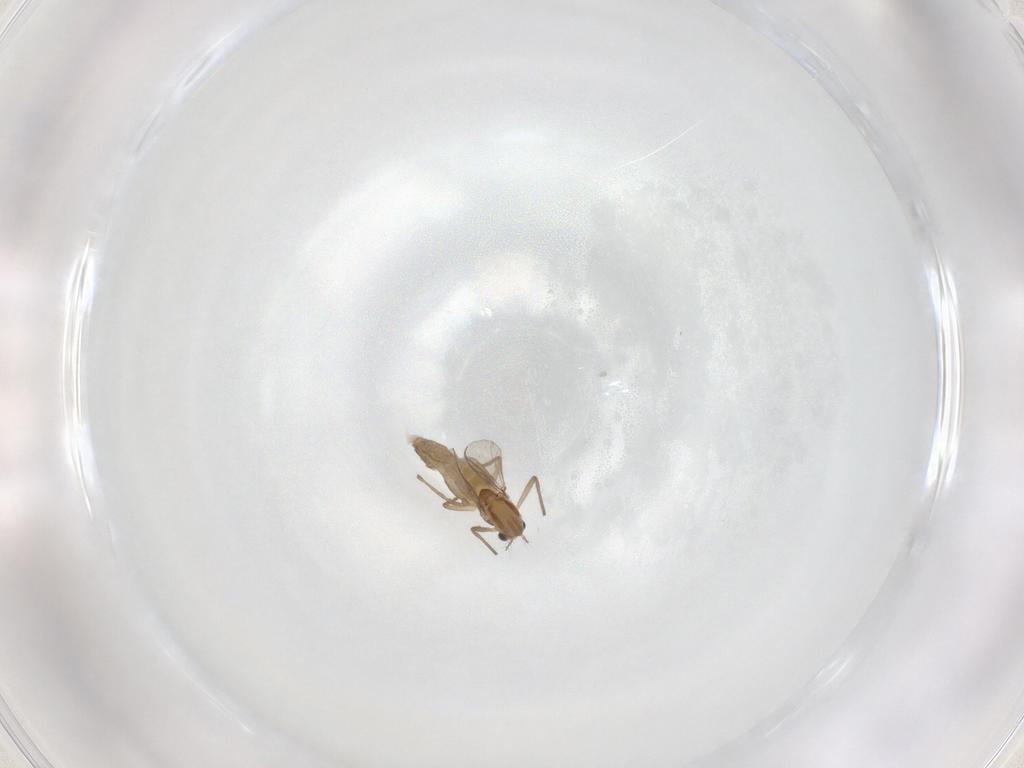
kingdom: Animalia
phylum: Arthropoda
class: Insecta
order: Diptera
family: Chironomidae
